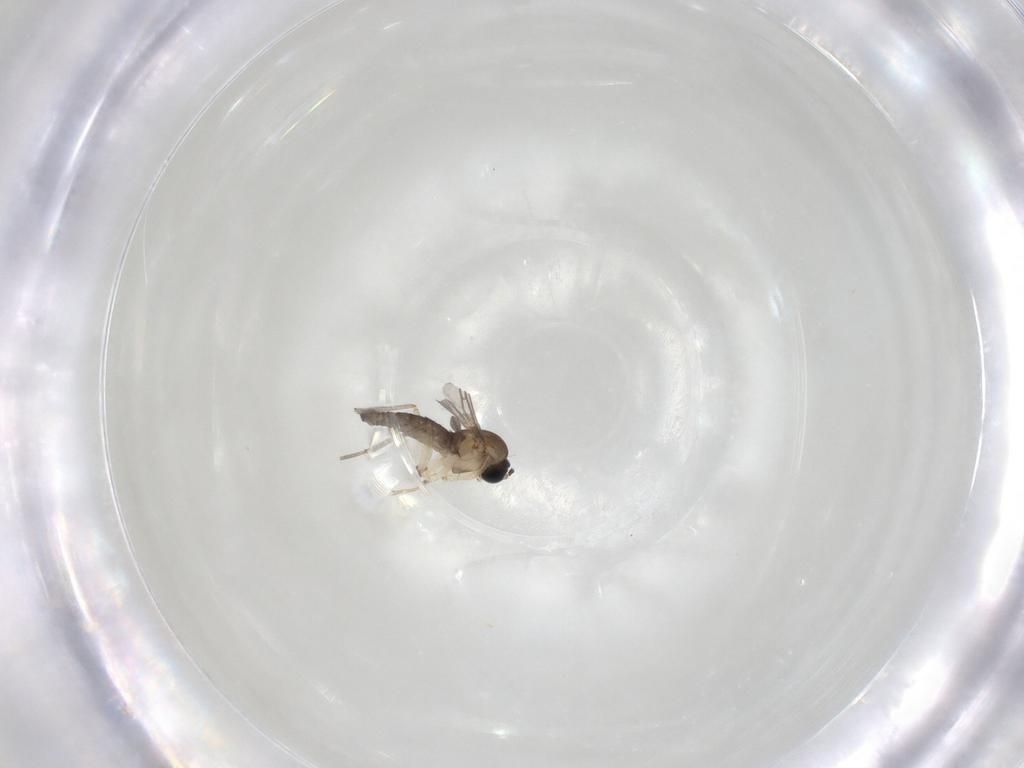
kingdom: Animalia
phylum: Arthropoda
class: Insecta
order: Diptera
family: Sciaridae
